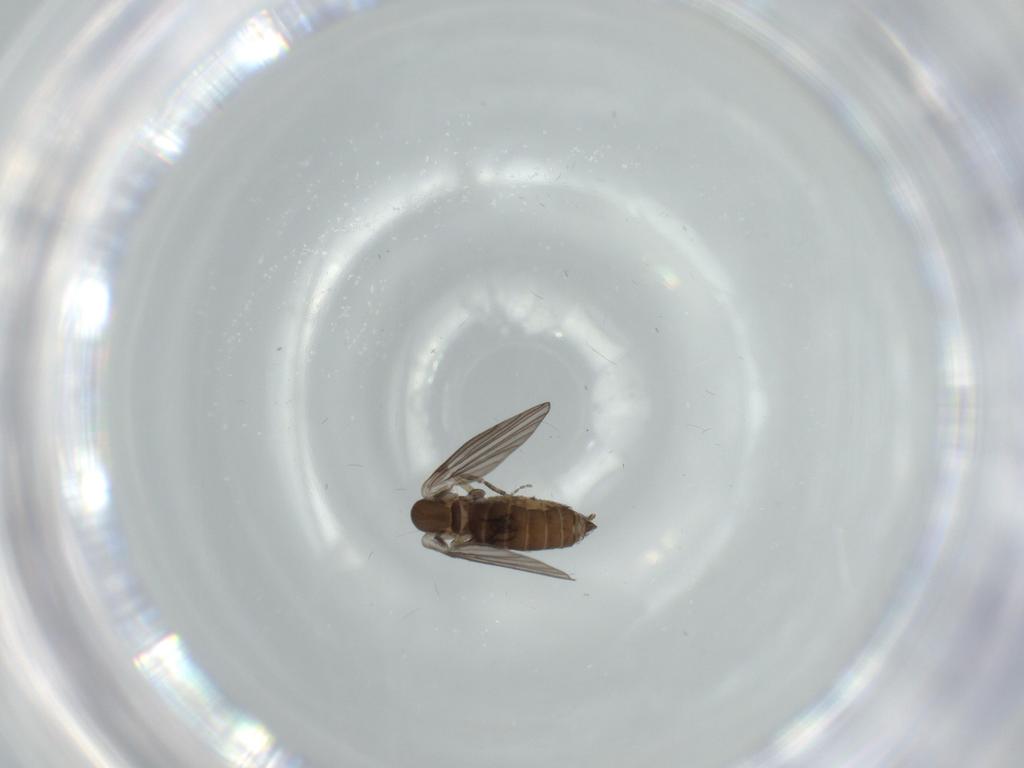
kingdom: Animalia
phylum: Arthropoda
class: Insecta
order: Diptera
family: Psychodidae
